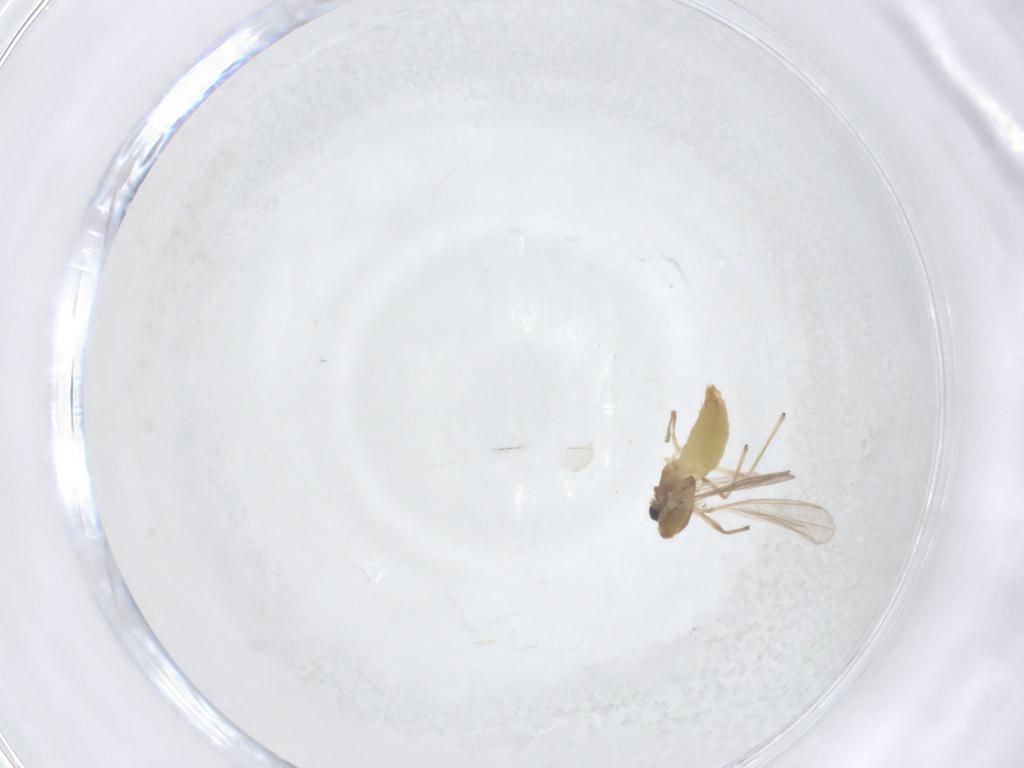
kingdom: Animalia
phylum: Arthropoda
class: Insecta
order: Diptera
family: Chironomidae
